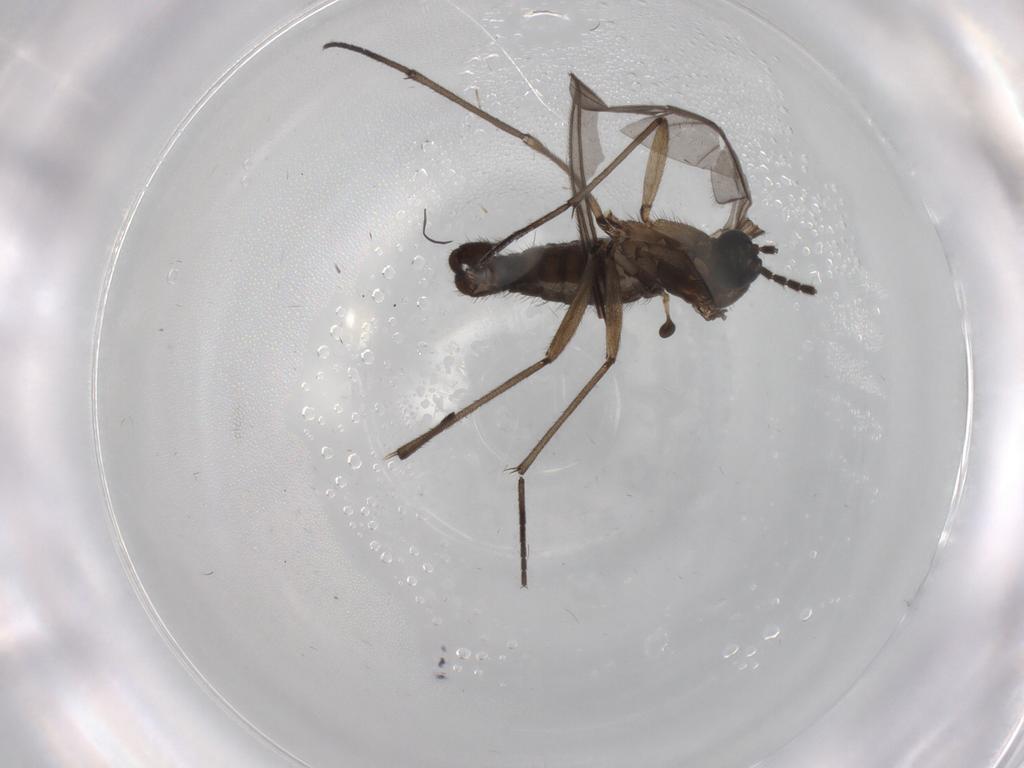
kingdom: Animalia
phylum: Arthropoda
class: Insecta
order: Diptera
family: Sciaridae
